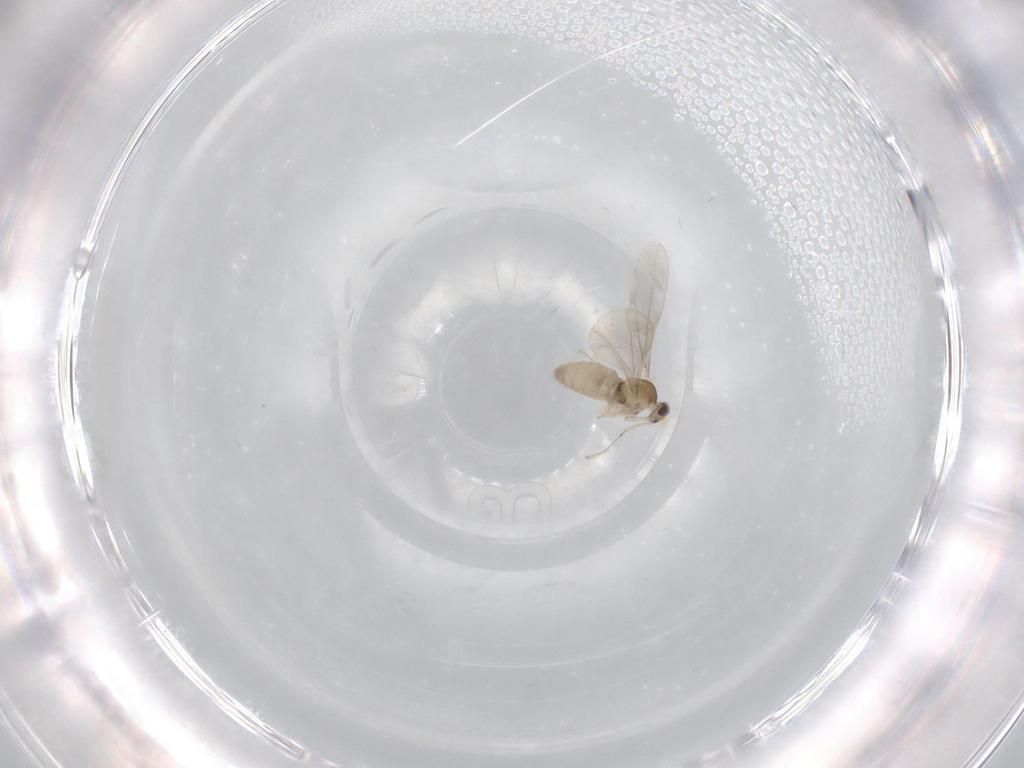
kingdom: Animalia
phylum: Arthropoda
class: Insecta
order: Diptera
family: Cecidomyiidae
